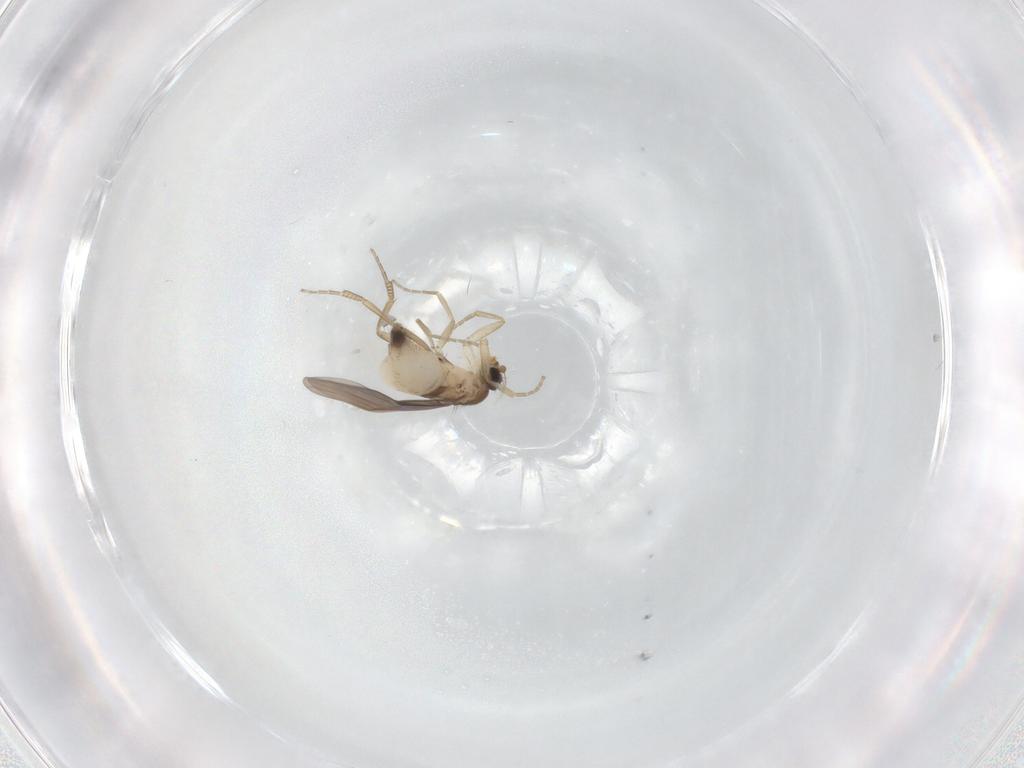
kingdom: Animalia
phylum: Arthropoda
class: Insecta
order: Diptera
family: Phoridae
